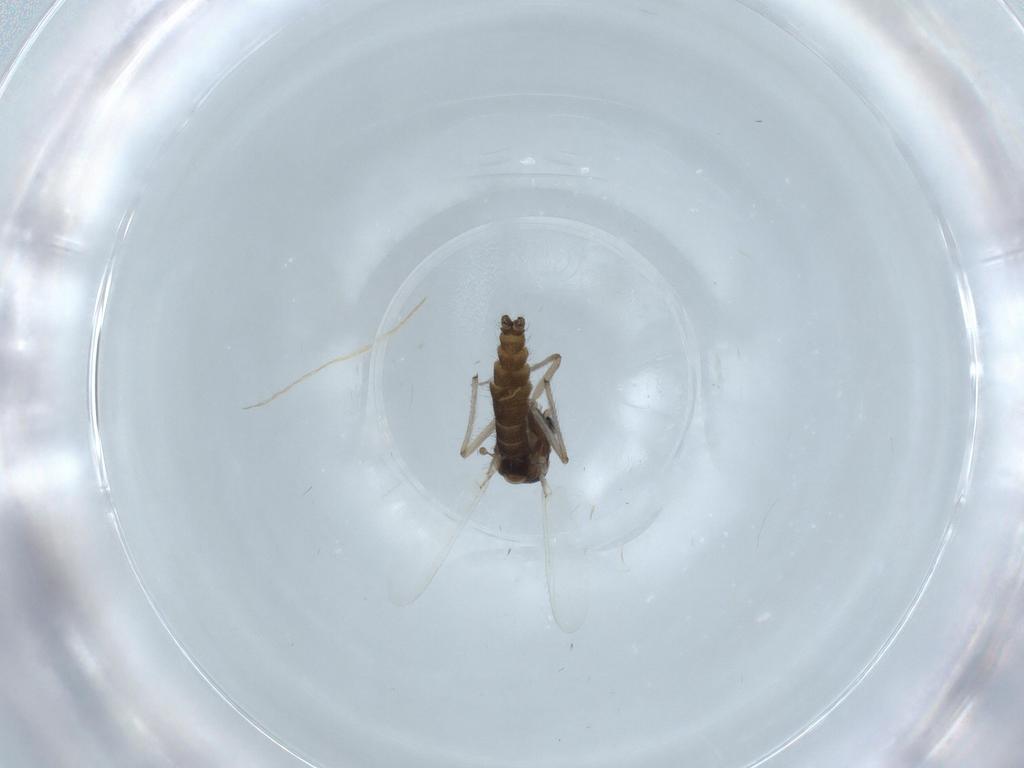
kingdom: Animalia
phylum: Arthropoda
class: Insecta
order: Diptera
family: Chironomidae
